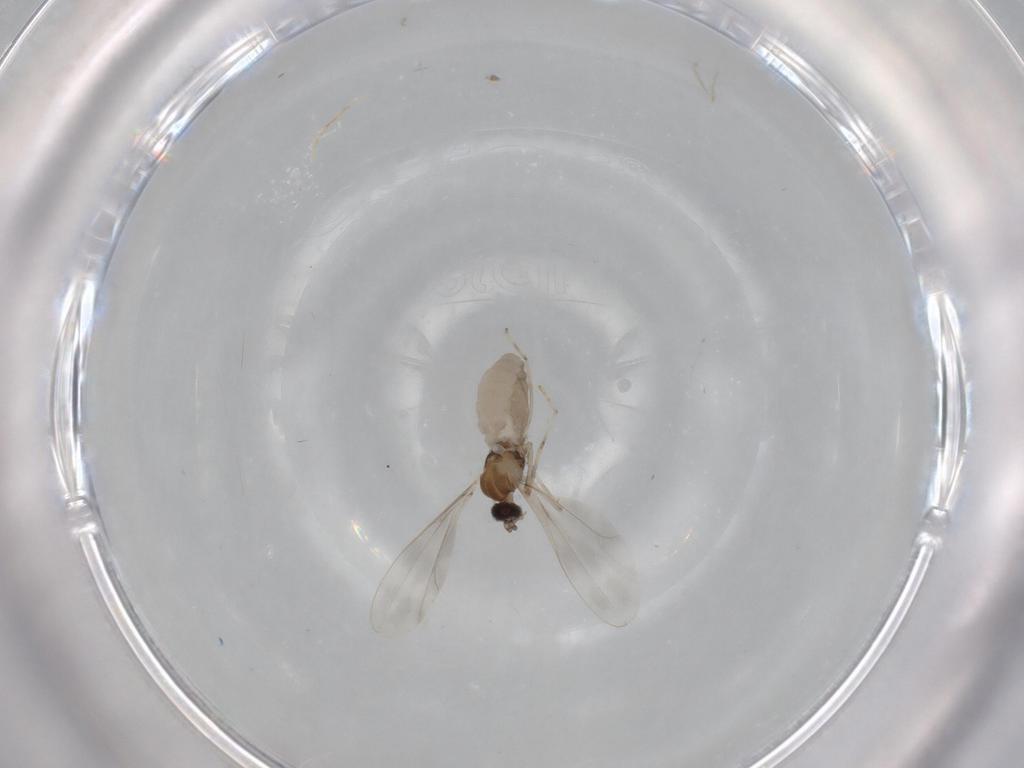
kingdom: Animalia
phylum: Arthropoda
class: Insecta
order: Diptera
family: Cecidomyiidae
